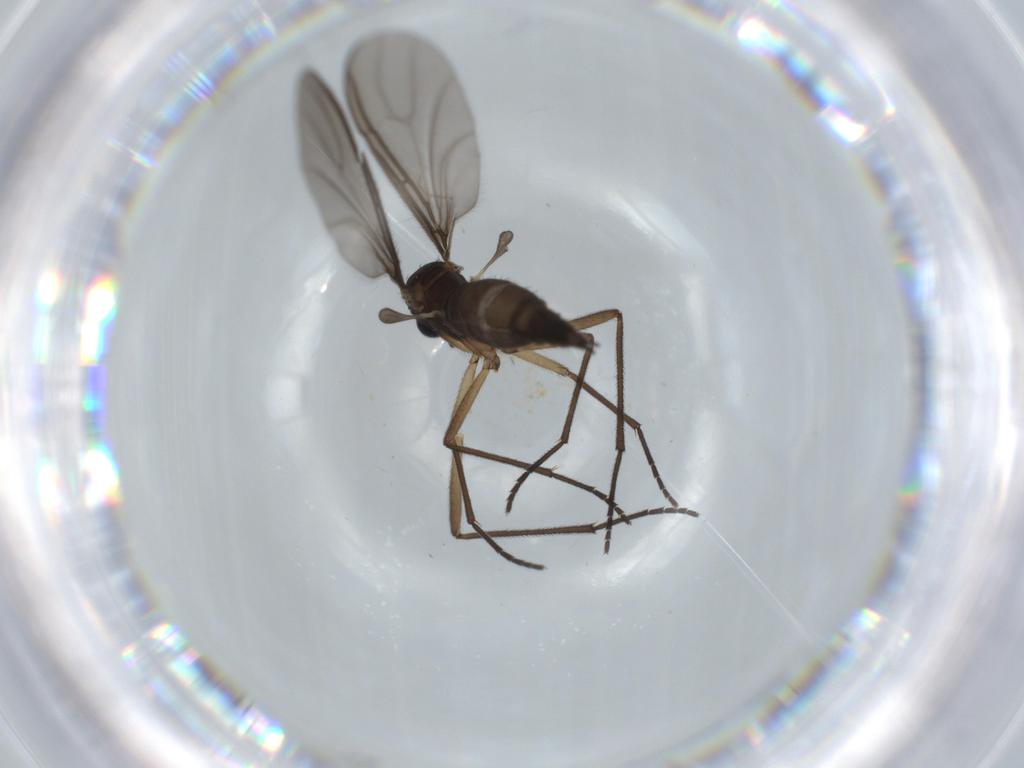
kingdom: Animalia
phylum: Arthropoda
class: Insecta
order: Diptera
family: Sciaridae
